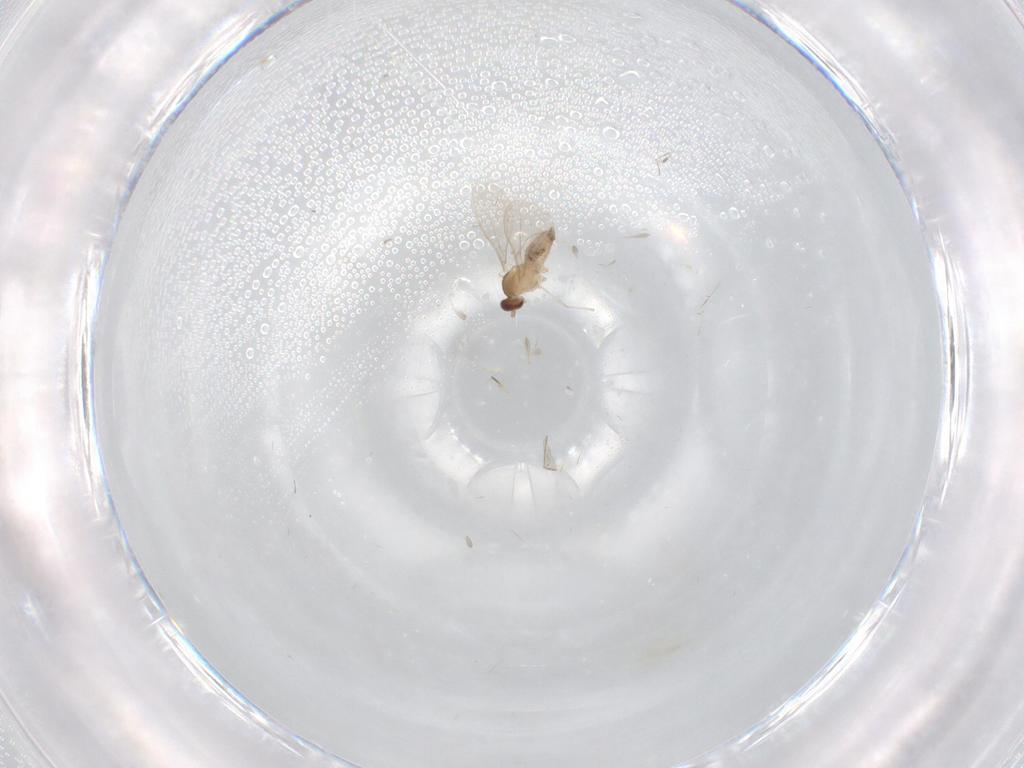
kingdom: Animalia
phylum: Arthropoda
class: Insecta
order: Diptera
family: Cecidomyiidae
